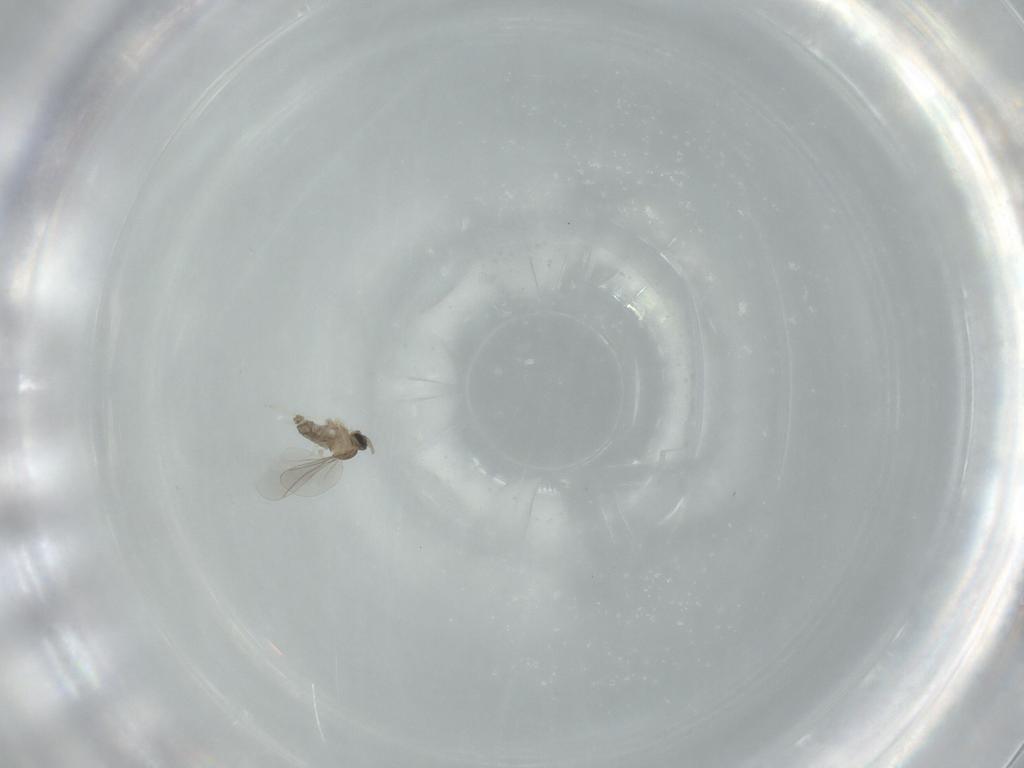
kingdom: Animalia
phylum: Arthropoda
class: Insecta
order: Diptera
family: Cecidomyiidae
